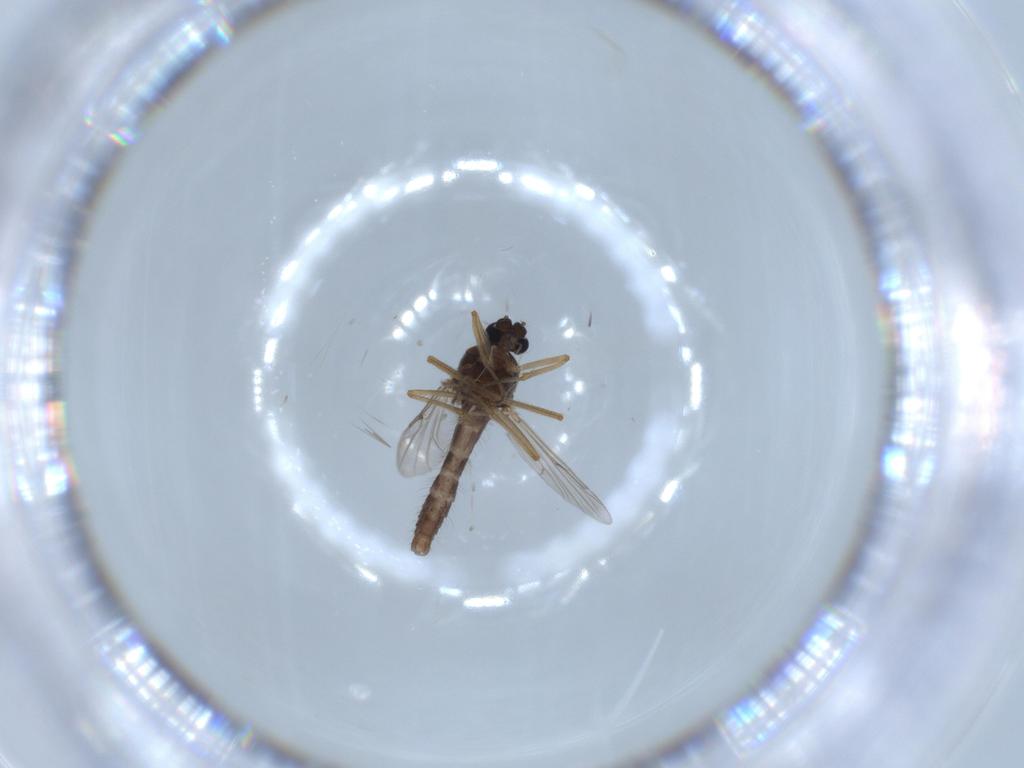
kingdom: Animalia
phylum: Arthropoda
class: Insecta
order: Diptera
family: Ceratopogonidae
